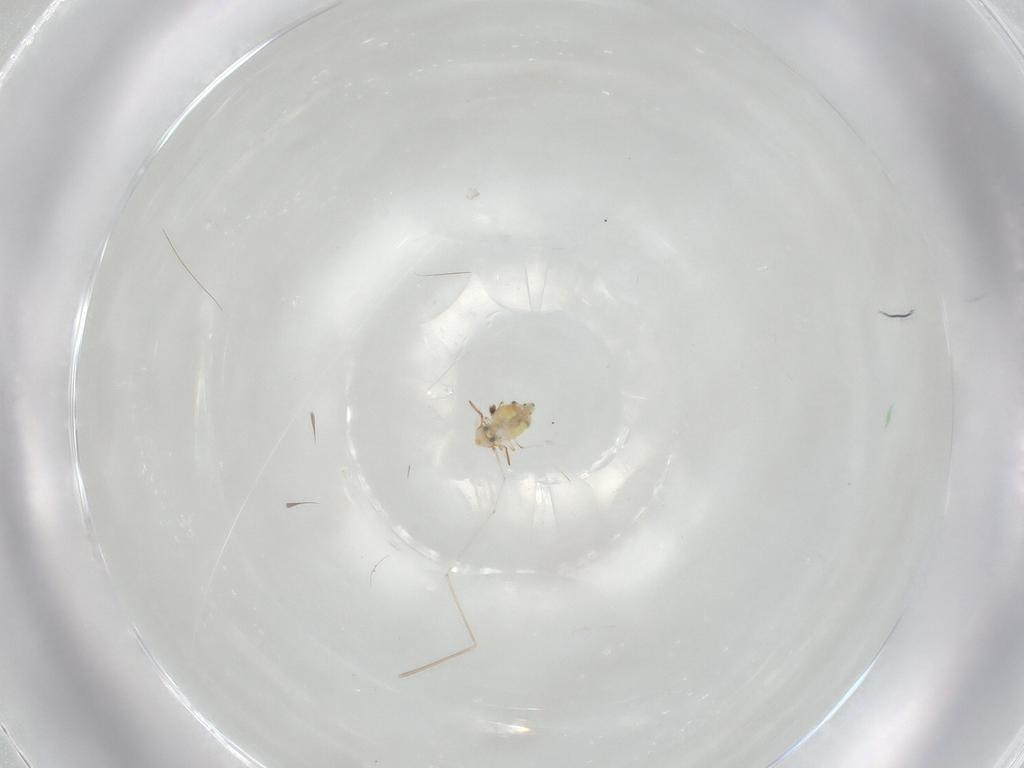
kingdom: Animalia
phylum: Arthropoda
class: Collembola
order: Symphypleona
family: Bourletiellidae
